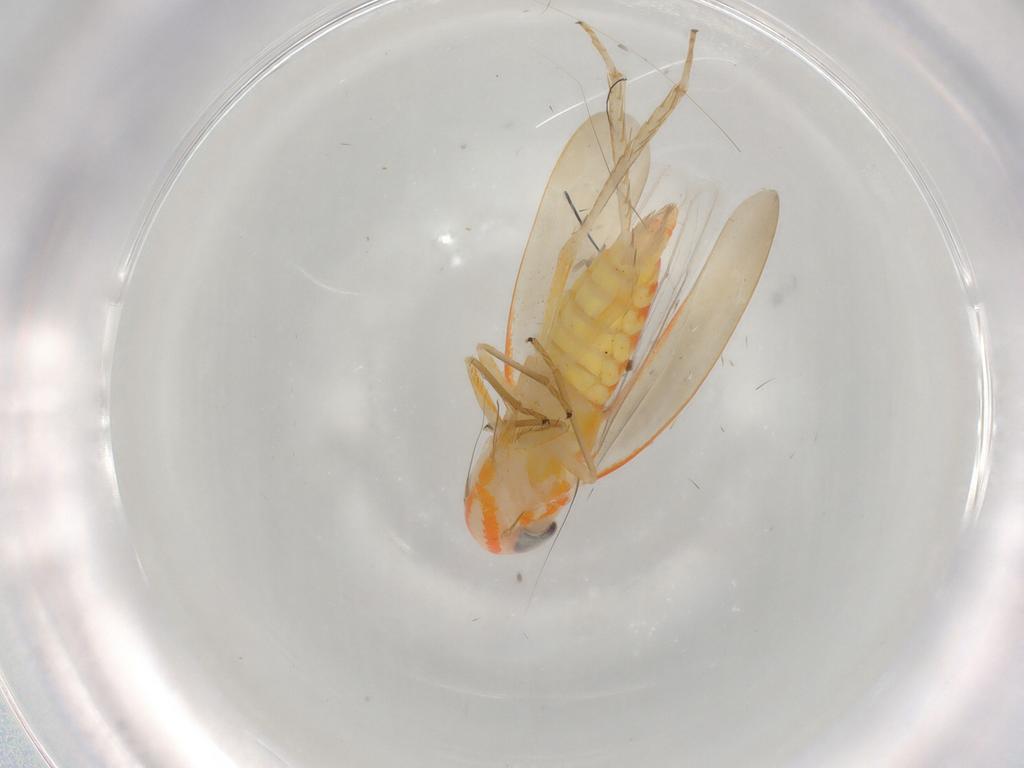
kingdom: Animalia
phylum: Arthropoda
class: Insecta
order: Hemiptera
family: Cicadellidae
